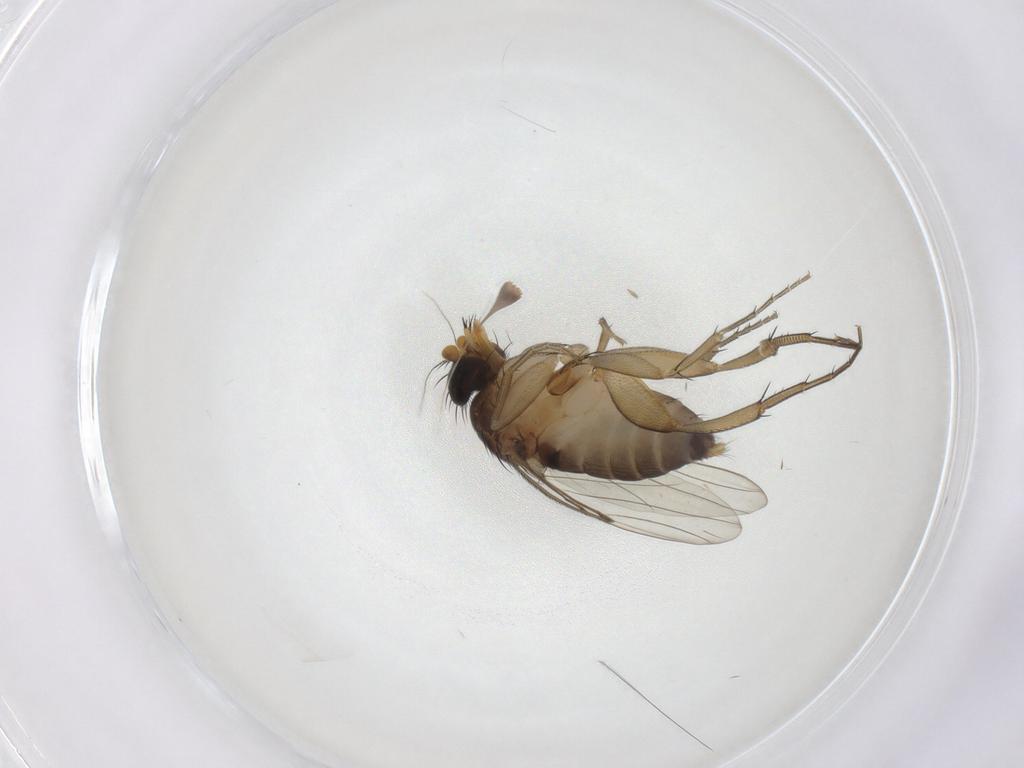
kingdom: Animalia
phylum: Arthropoda
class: Insecta
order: Diptera
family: Phoridae
